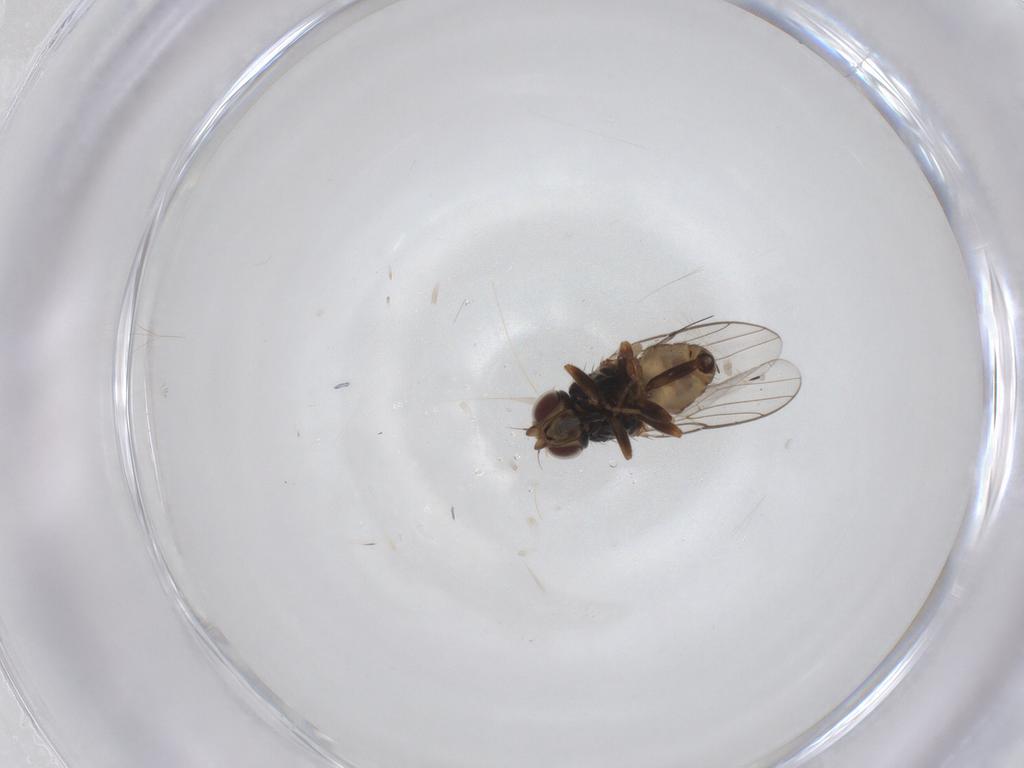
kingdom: Animalia
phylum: Arthropoda
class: Insecta
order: Diptera
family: Chloropidae
